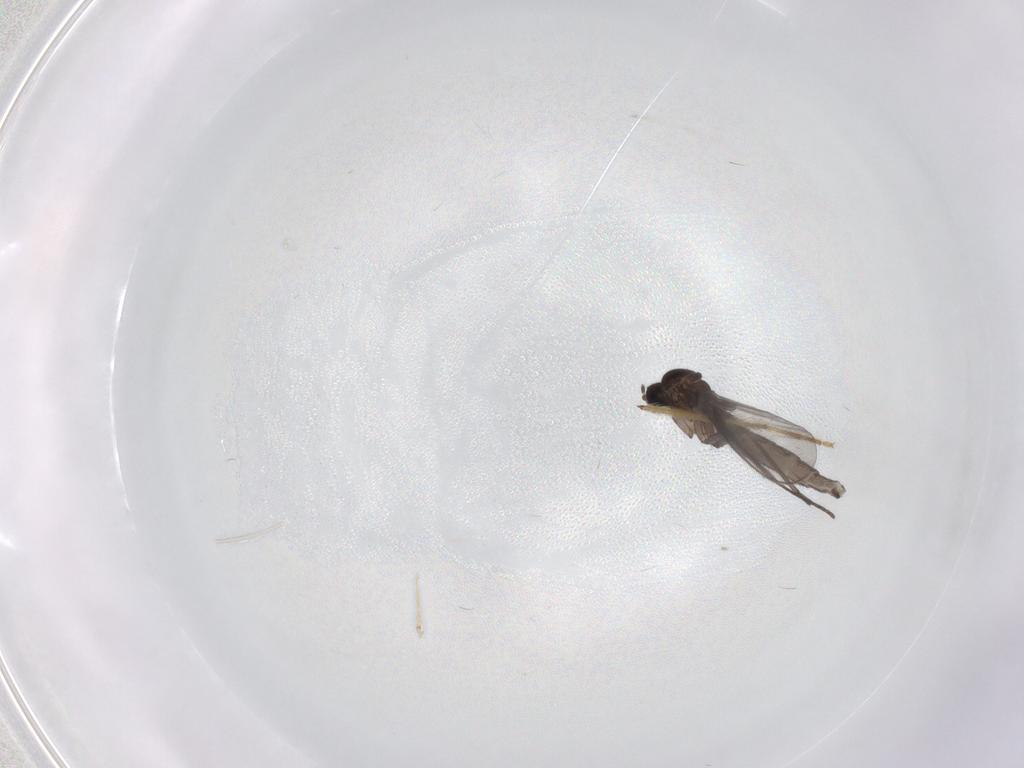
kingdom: Animalia
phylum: Arthropoda
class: Insecta
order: Diptera
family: Chironomidae
